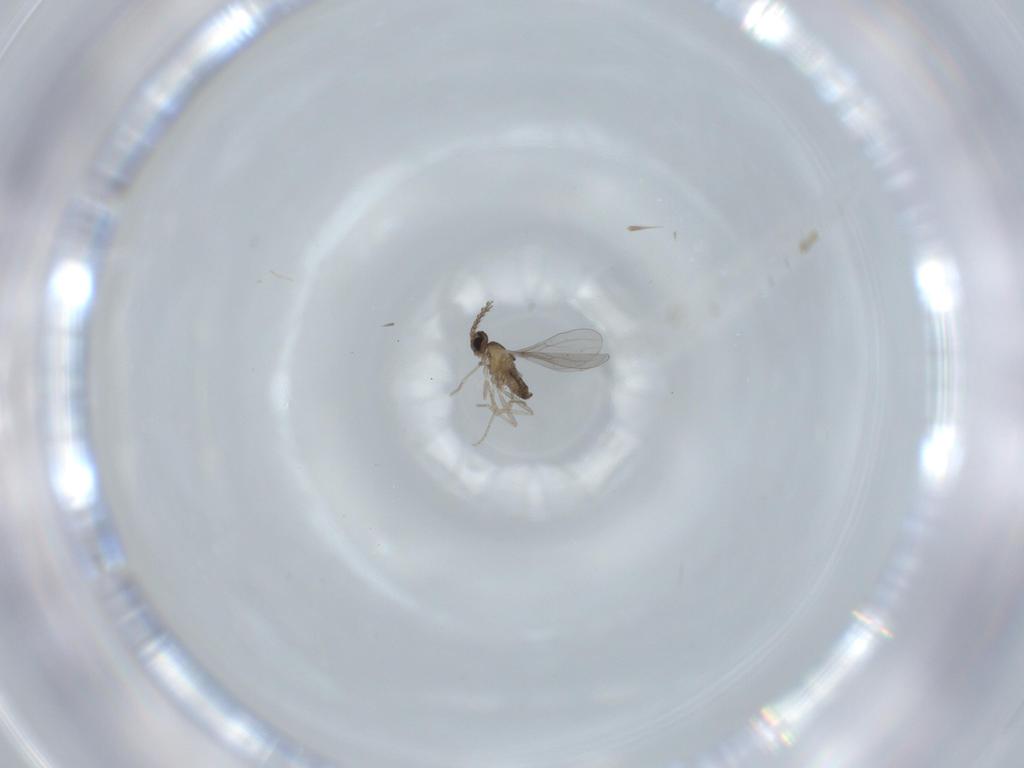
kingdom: Animalia
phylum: Arthropoda
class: Insecta
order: Diptera
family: Cecidomyiidae
